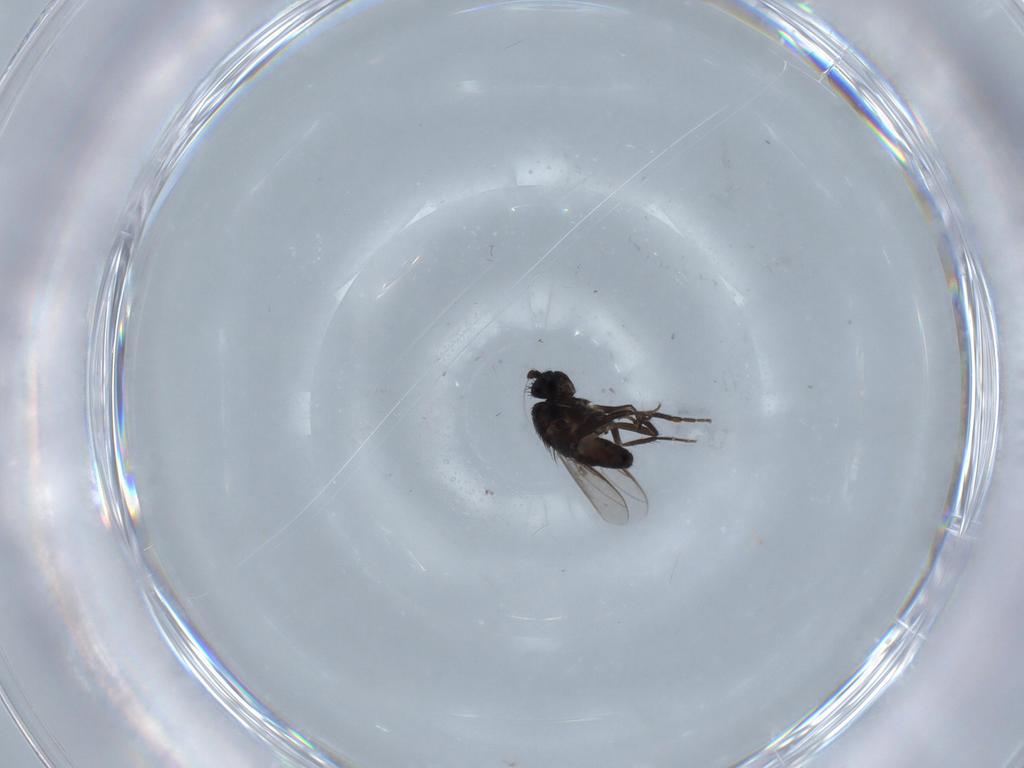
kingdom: Animalia
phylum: Arthropoda
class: Insecta
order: Diptera
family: Sphaeroceridae
